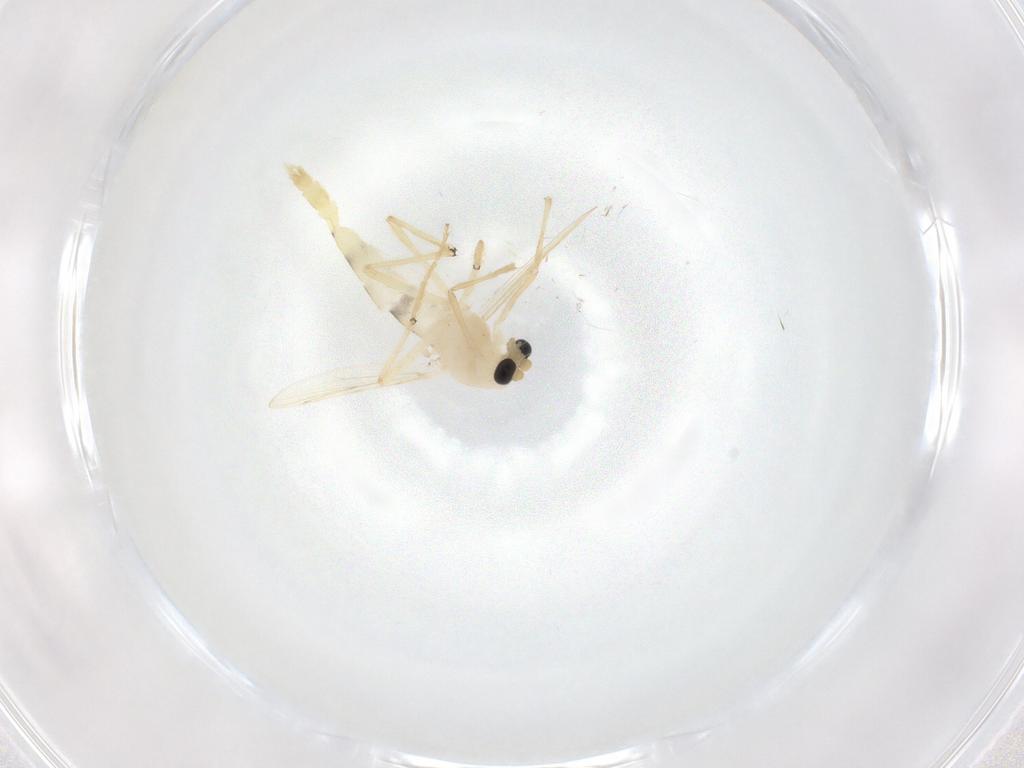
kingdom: Animalia
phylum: Arthropoda
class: Insecta
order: Diptera
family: Chironomidae
